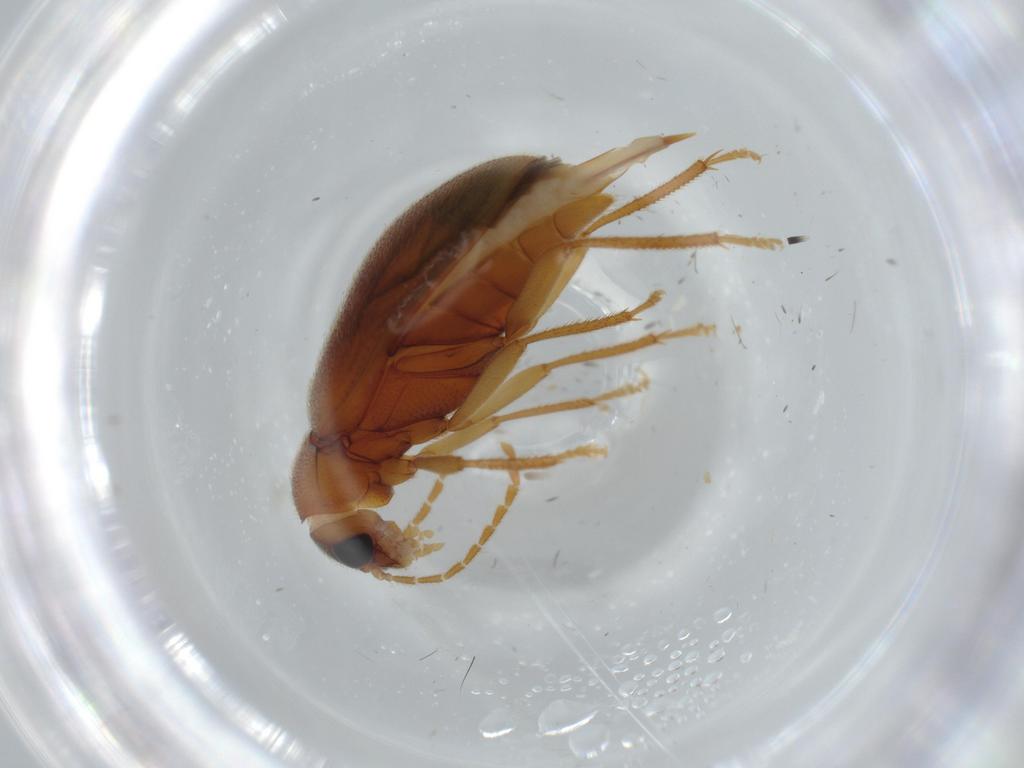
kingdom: Animalia
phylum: Arthropoda
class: Insecta
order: Coleoptera
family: Ptilodactylidae
